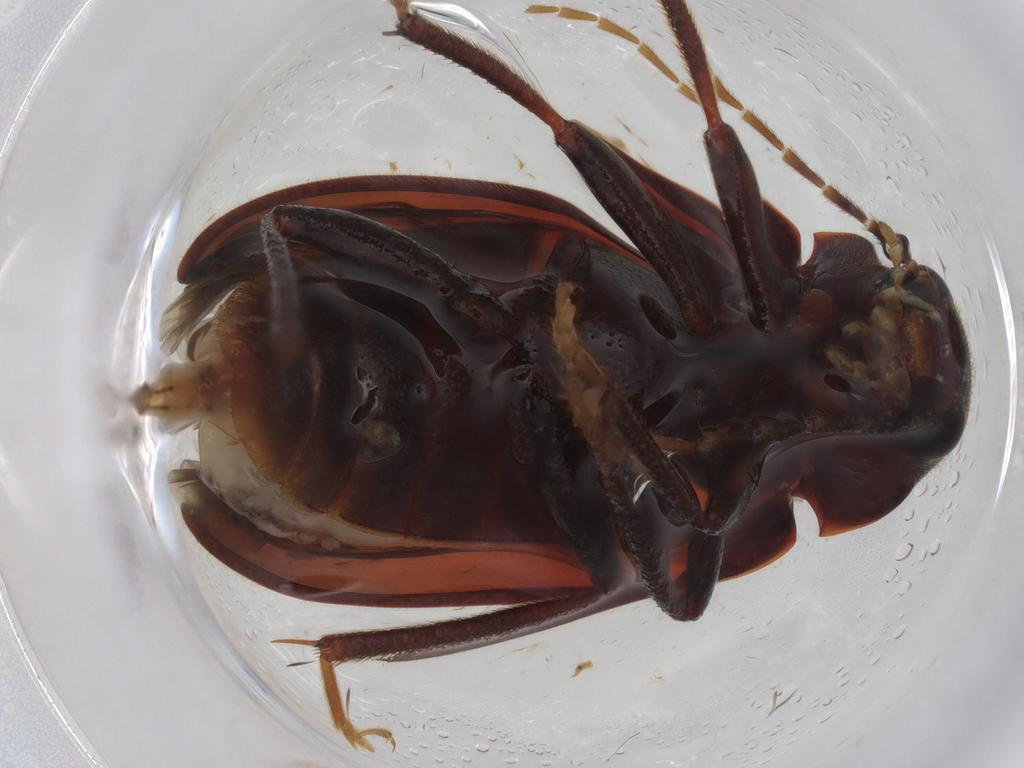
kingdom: Animalia
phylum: Arthropoda
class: Insecta
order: Coleoptera
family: Ptilodactylidae
